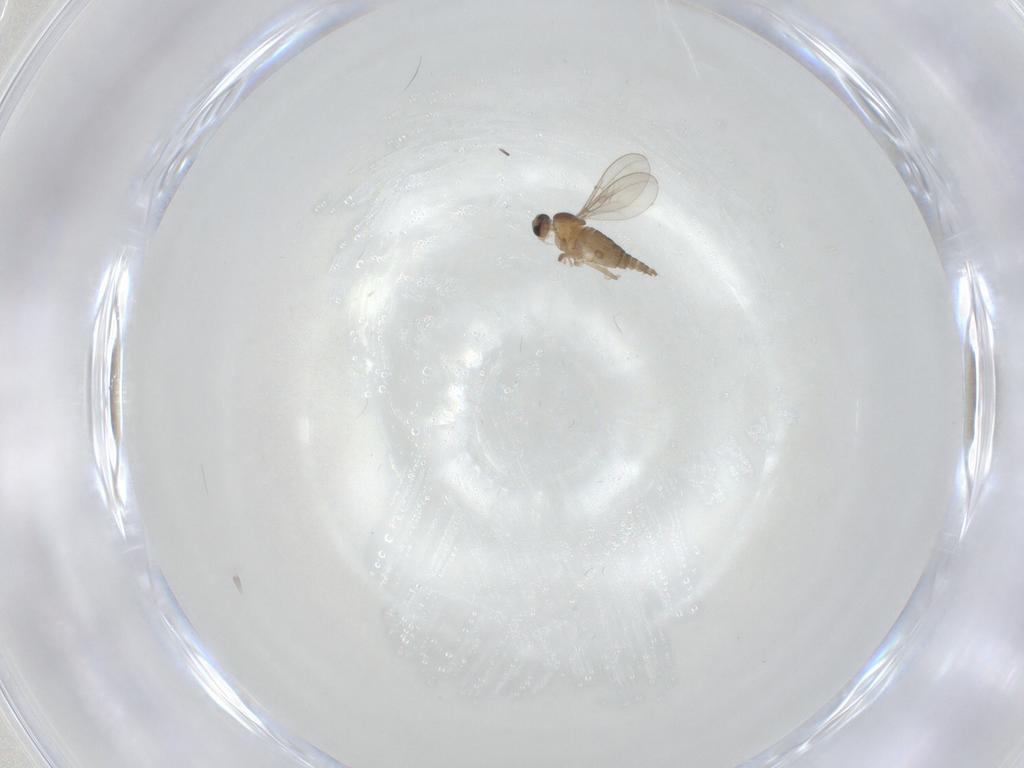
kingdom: Animalia
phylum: Arthropoda
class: Insecta
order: Diptera
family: Cecidomyiidae
